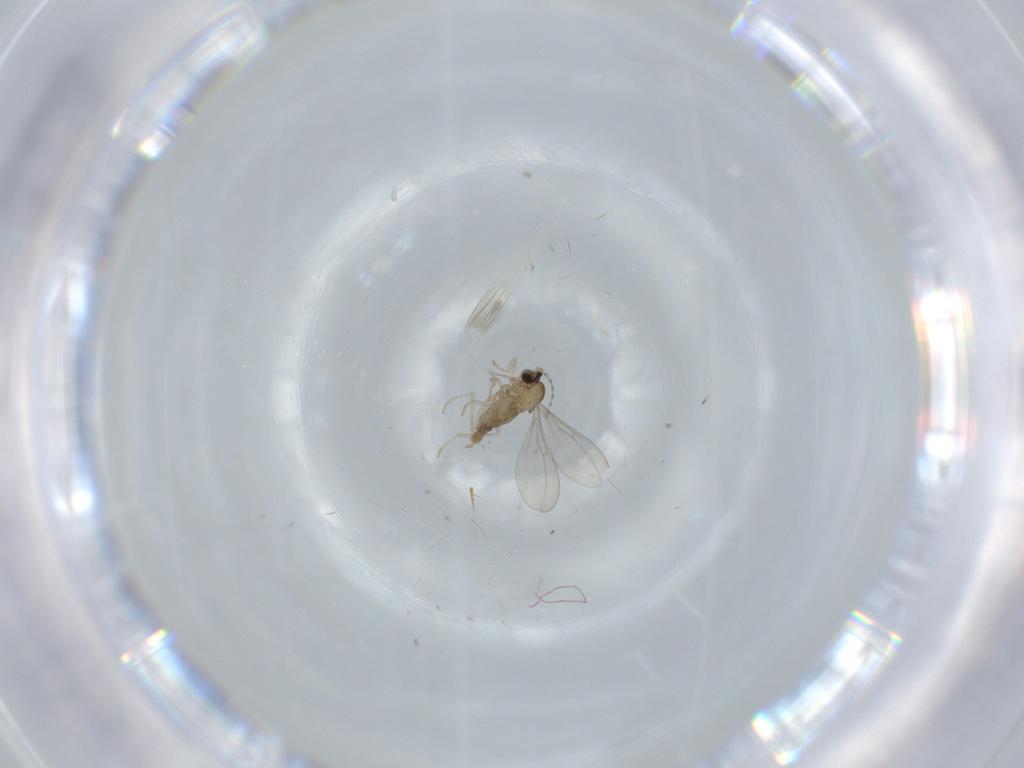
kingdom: Animalia
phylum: Arthropoda
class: Insecta
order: Diptera
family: Cecidomyiidae
